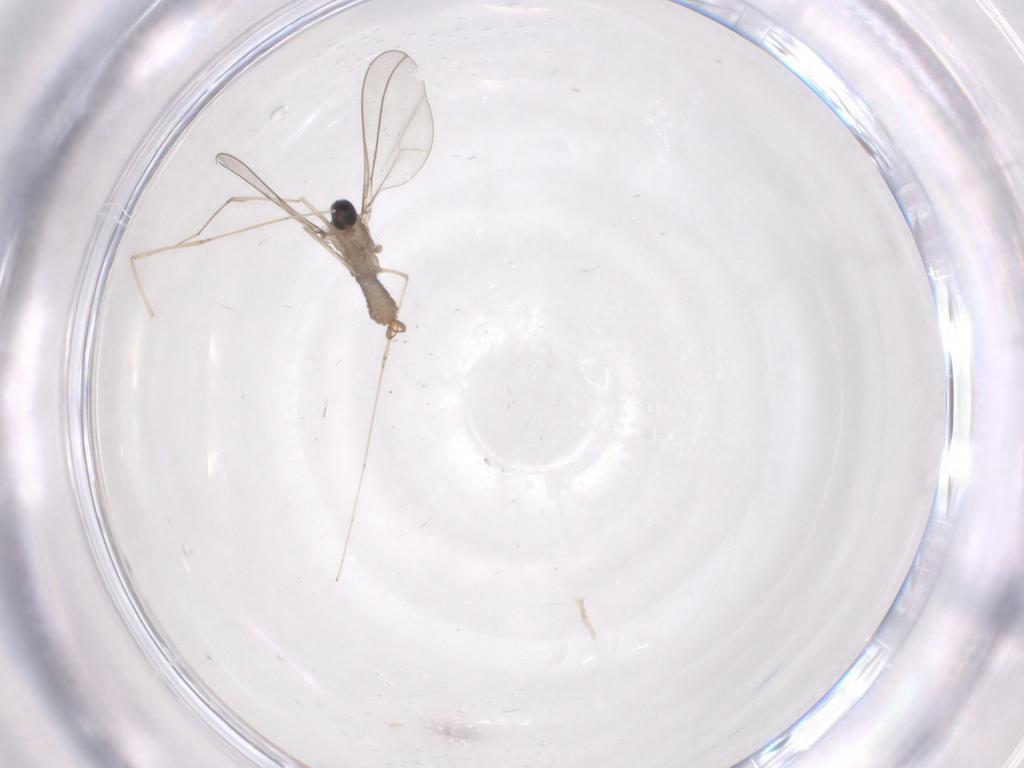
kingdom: Animalia
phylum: Arthropoda
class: Insecta
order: Diptera
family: Cecidomyiidae
